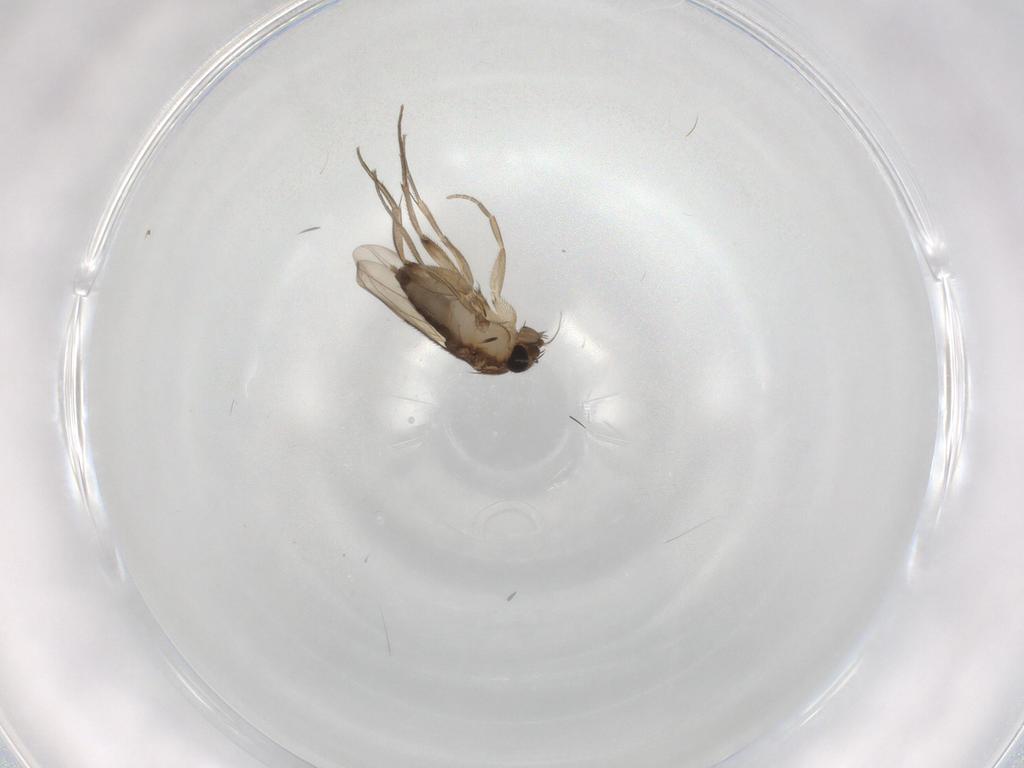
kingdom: Animalia
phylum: Arthropoda
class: Insecta
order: Diptera
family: Phoridae
